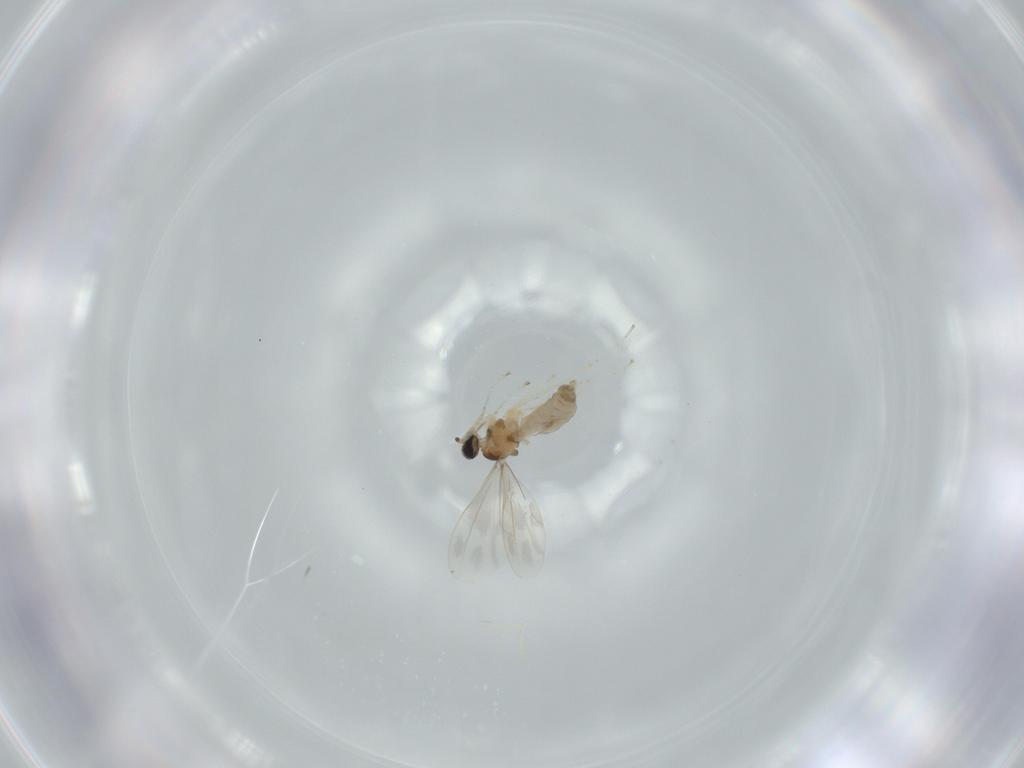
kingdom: Animalia
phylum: Arthropoda
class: Insecta
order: Diptera
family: Cecidomyiidae
